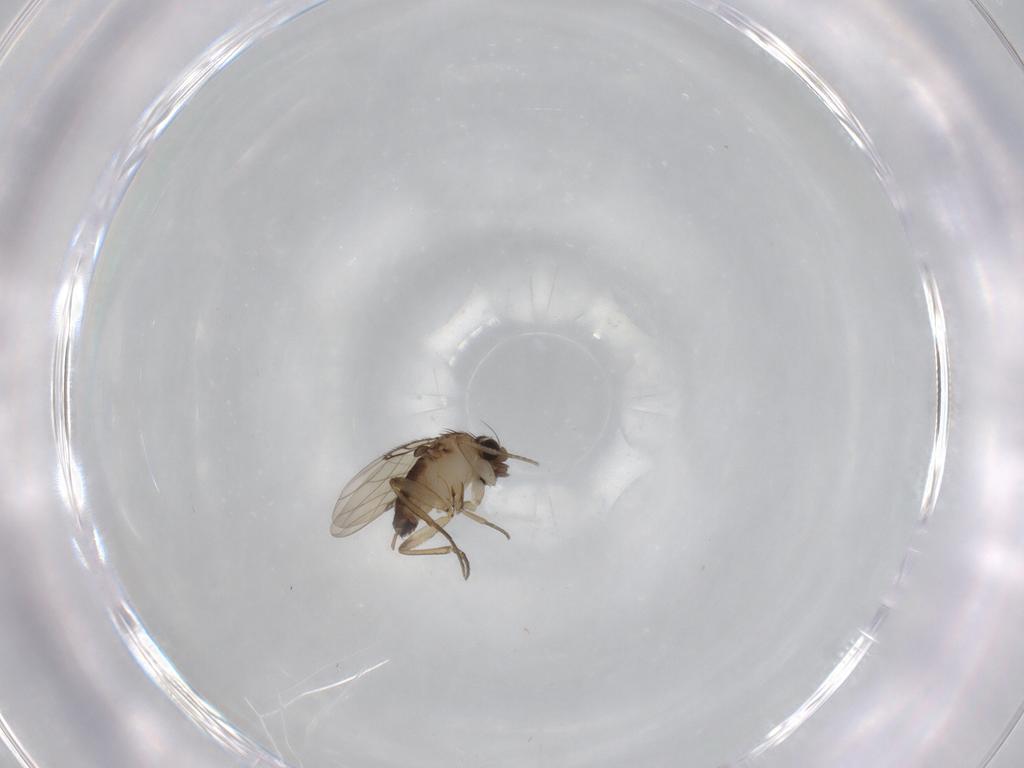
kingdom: Animalia
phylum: Arthropoda
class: Insecta
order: Diptera
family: Phoridae
